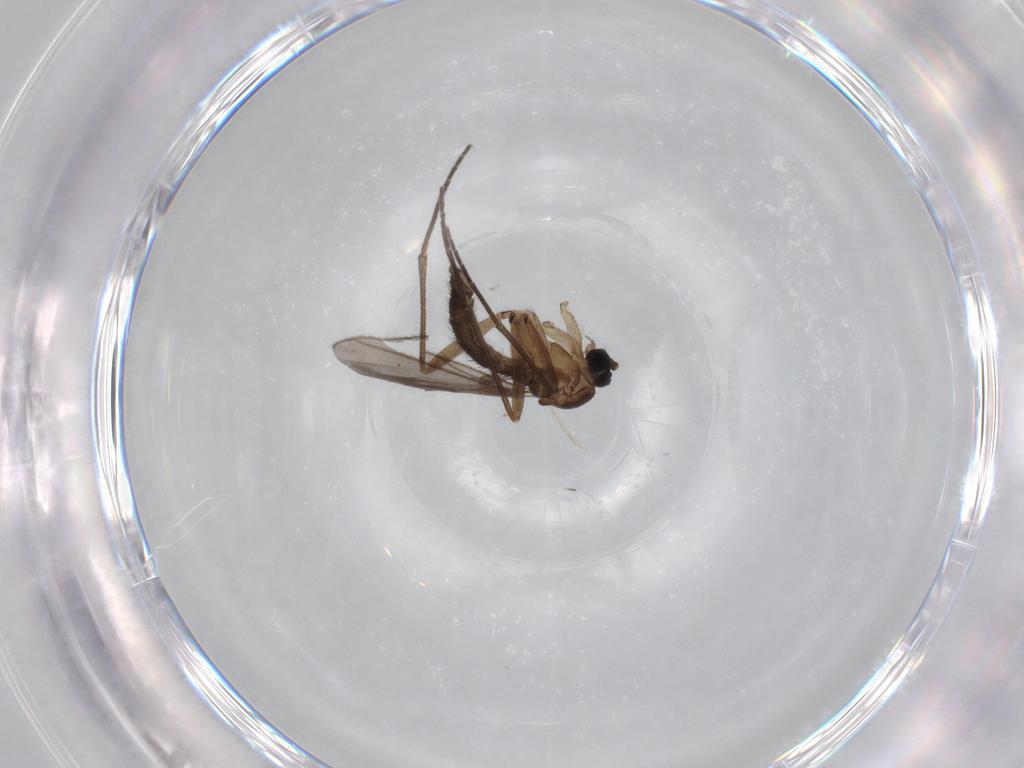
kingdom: Animalia
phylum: Arthropoda
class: Insecta
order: Diptera
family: Sciaridae
